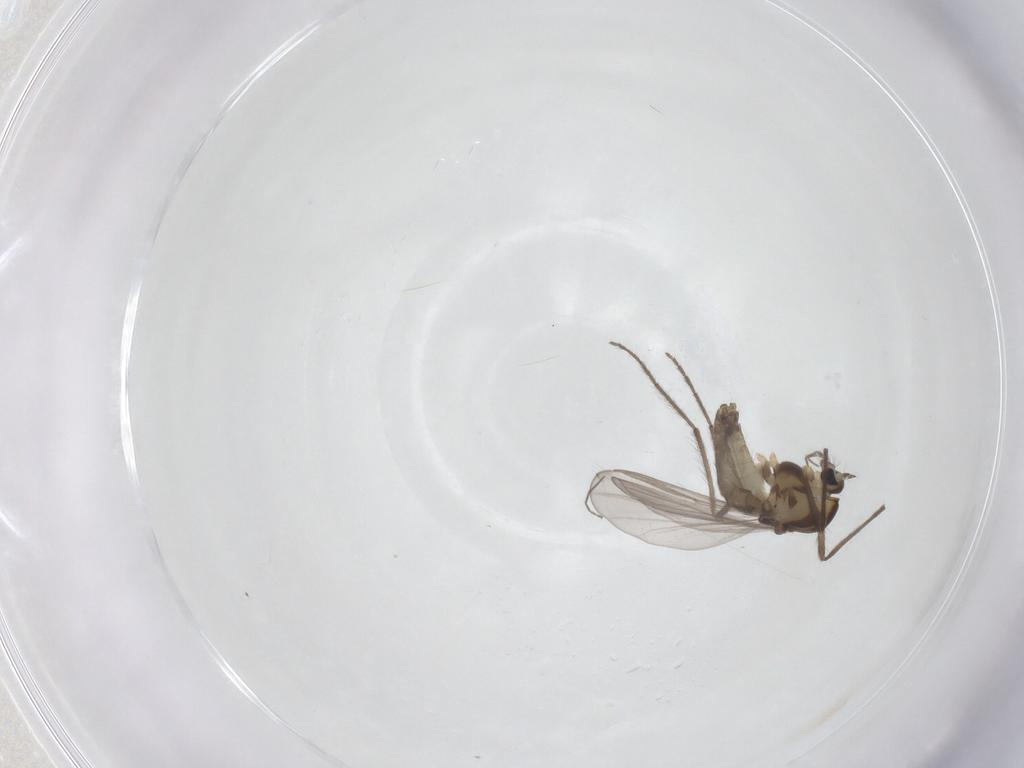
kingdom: Animalia
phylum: Arthropoda
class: Insecta
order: Diptera
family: Chironomidae
